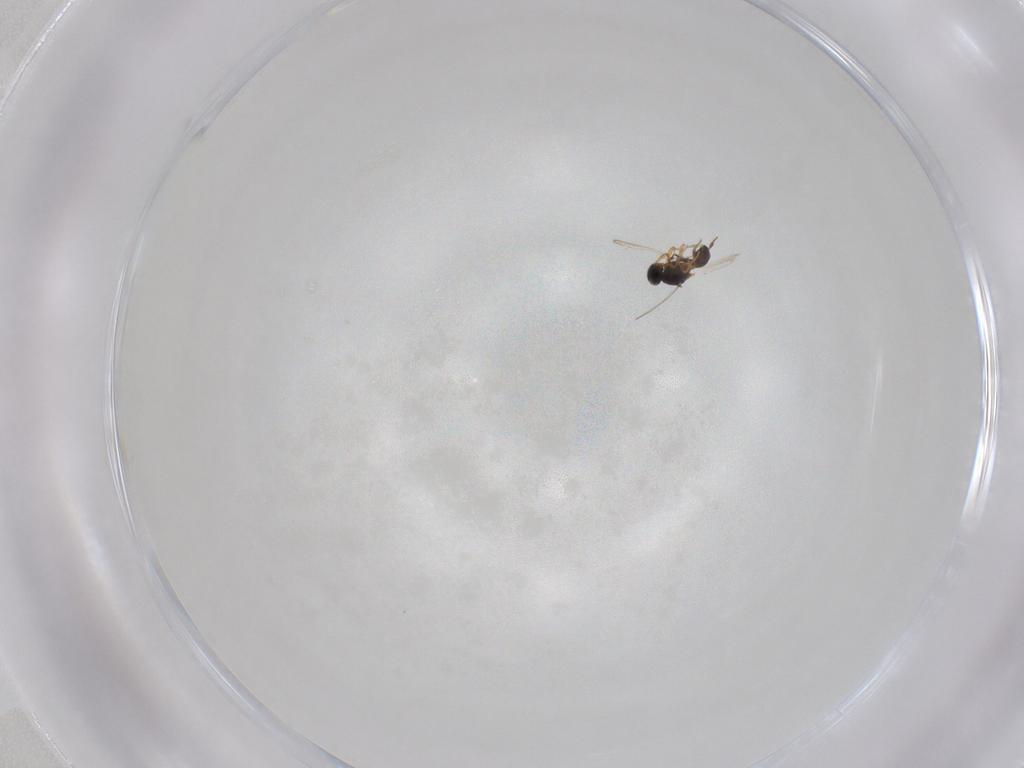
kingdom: Animalia
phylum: Arthropoda
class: Insecta
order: Hymenoptera
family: Platygastridae
